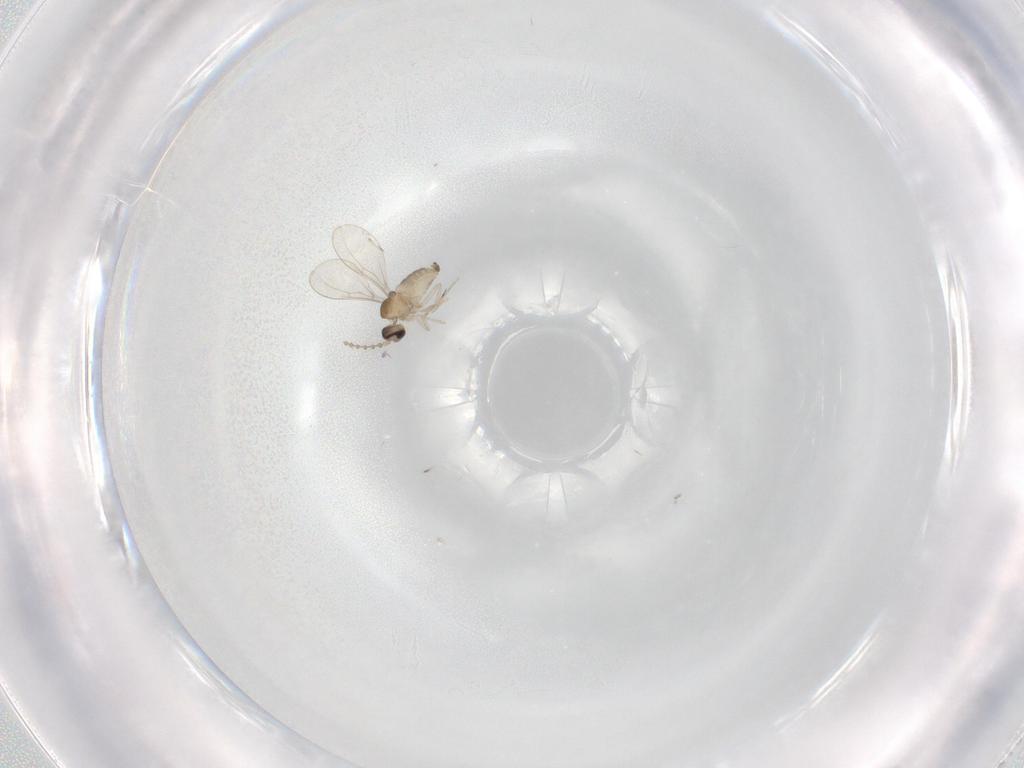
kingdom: Animalia
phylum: Arthropoda
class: Insecta
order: Diptera
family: Cecidomyiidae
